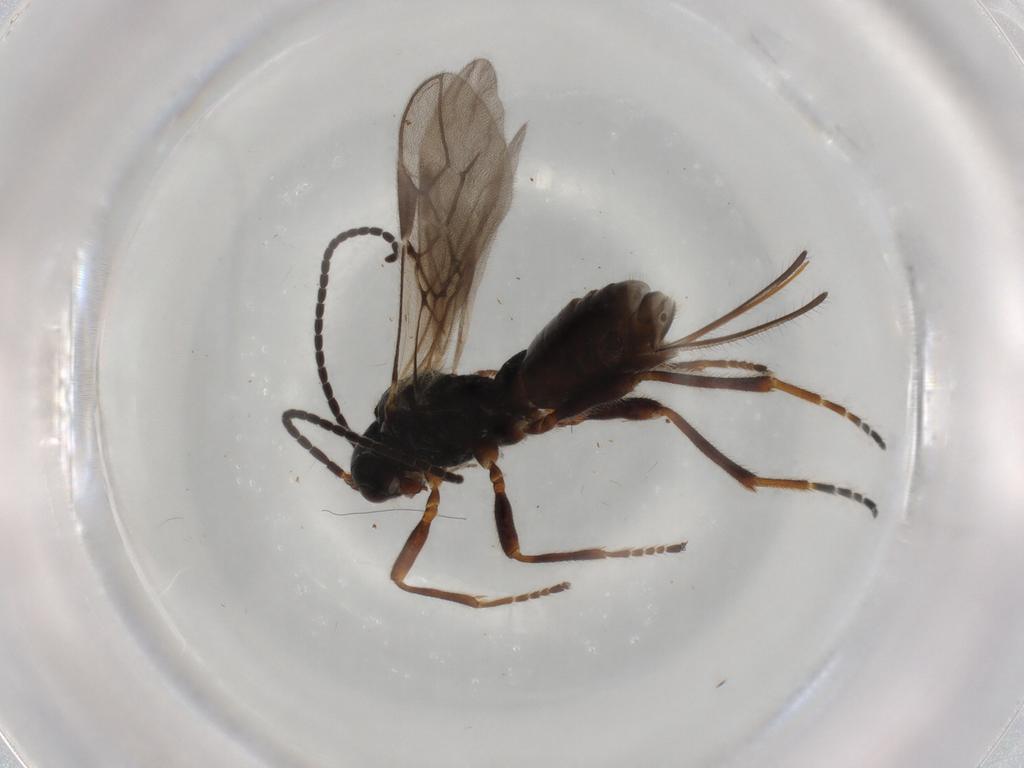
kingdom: Animalia
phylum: Arthropoda
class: Insecta
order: Hymenoptera
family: Braconidae
